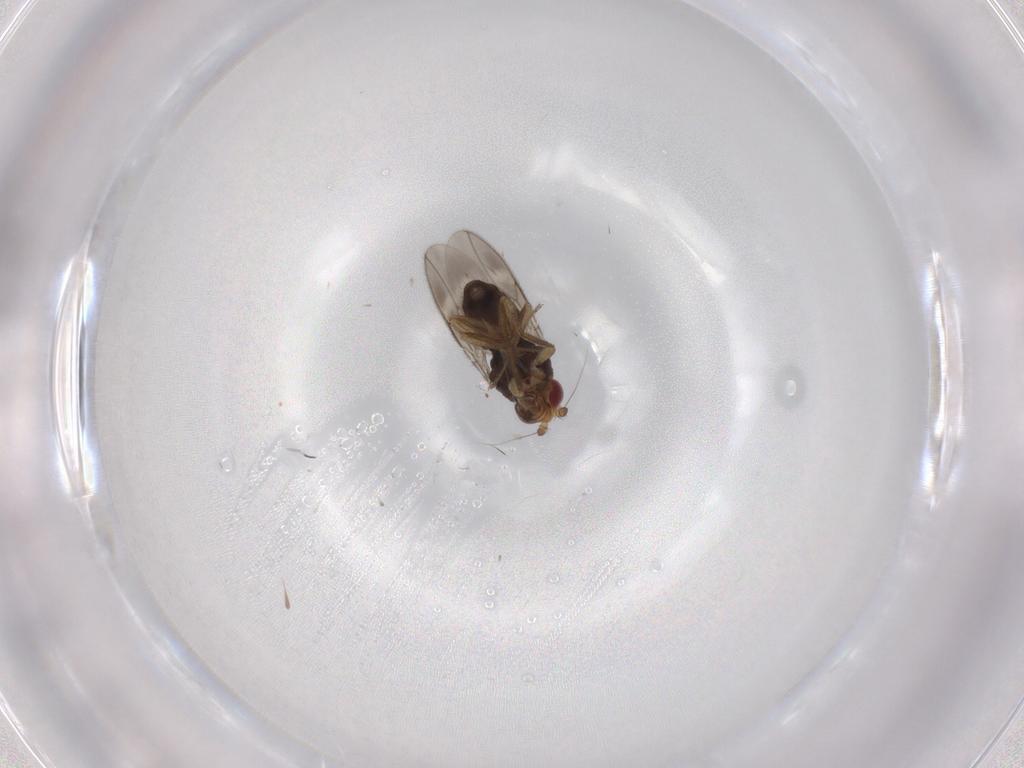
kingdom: Animalia
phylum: Arthropoda
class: Insecta
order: Diptera
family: Sphaeroceridae
